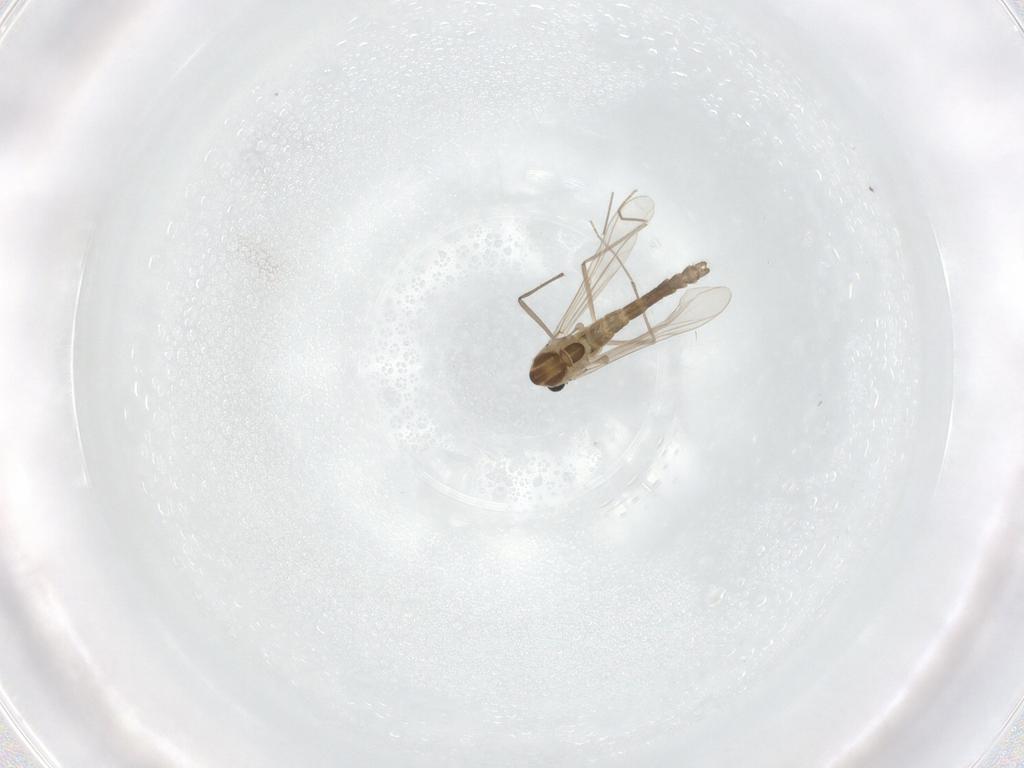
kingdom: Animalia
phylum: Arthropoda
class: Insecta
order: Diptera
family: Chironomidae
